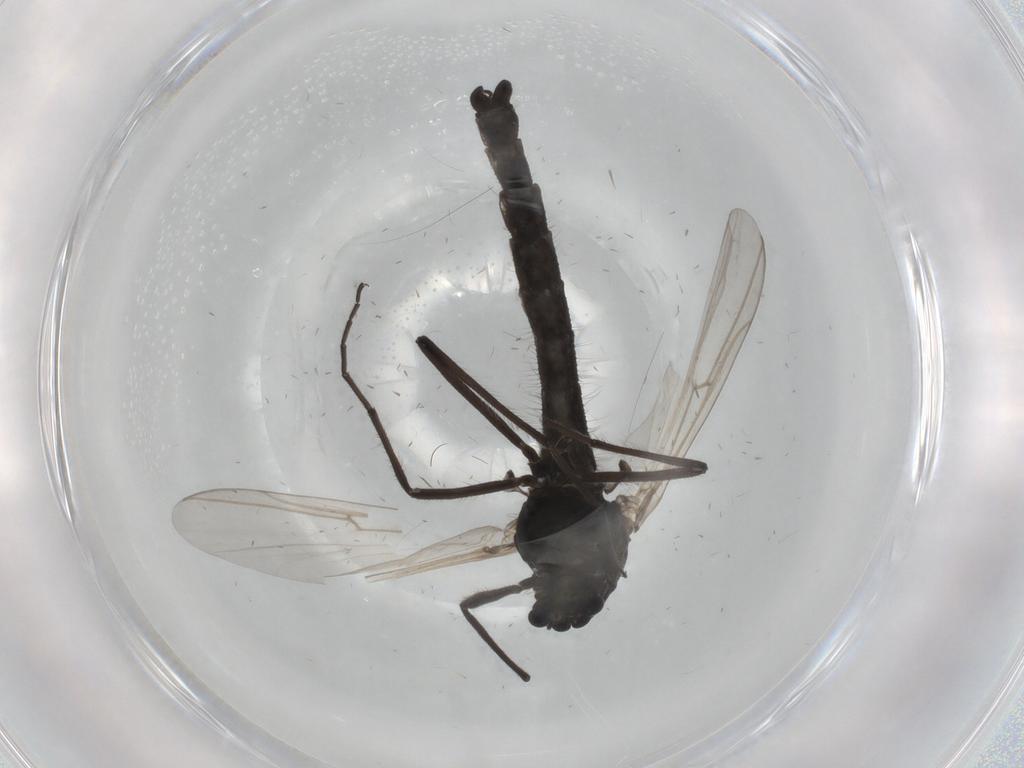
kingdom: Animalia
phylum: Arthropoda
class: Insecta
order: Diptera
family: Chironomidae
